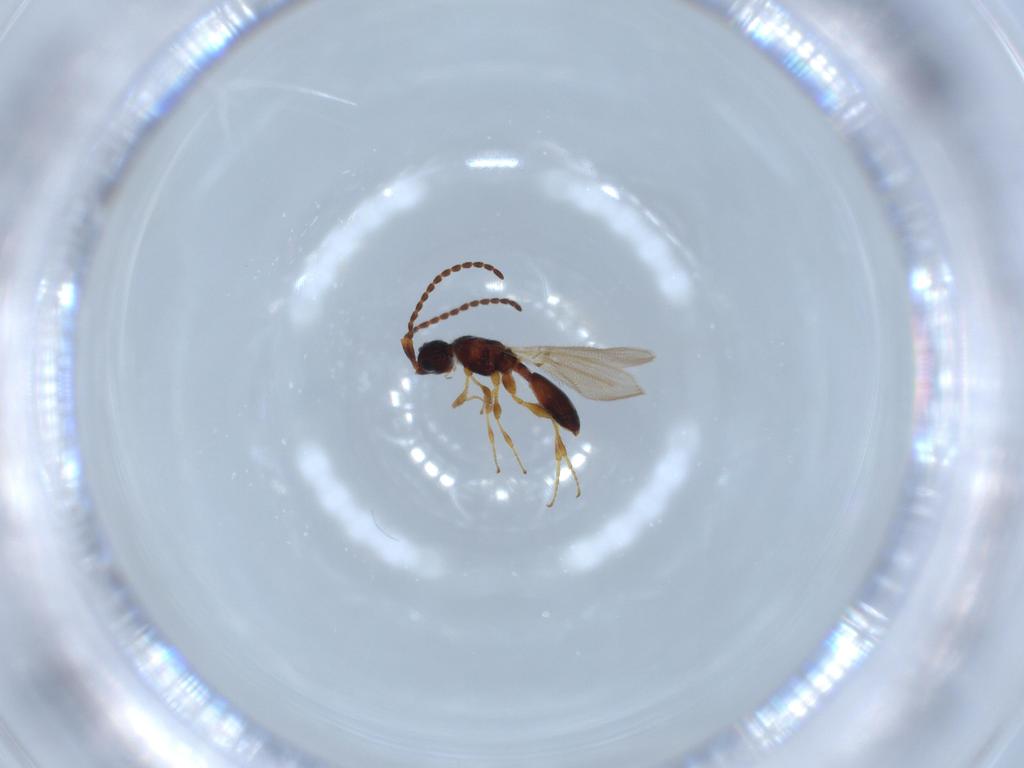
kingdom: Animalia
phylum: Arthropoda
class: Insecta
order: Hymenoptera
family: Diapriidae
